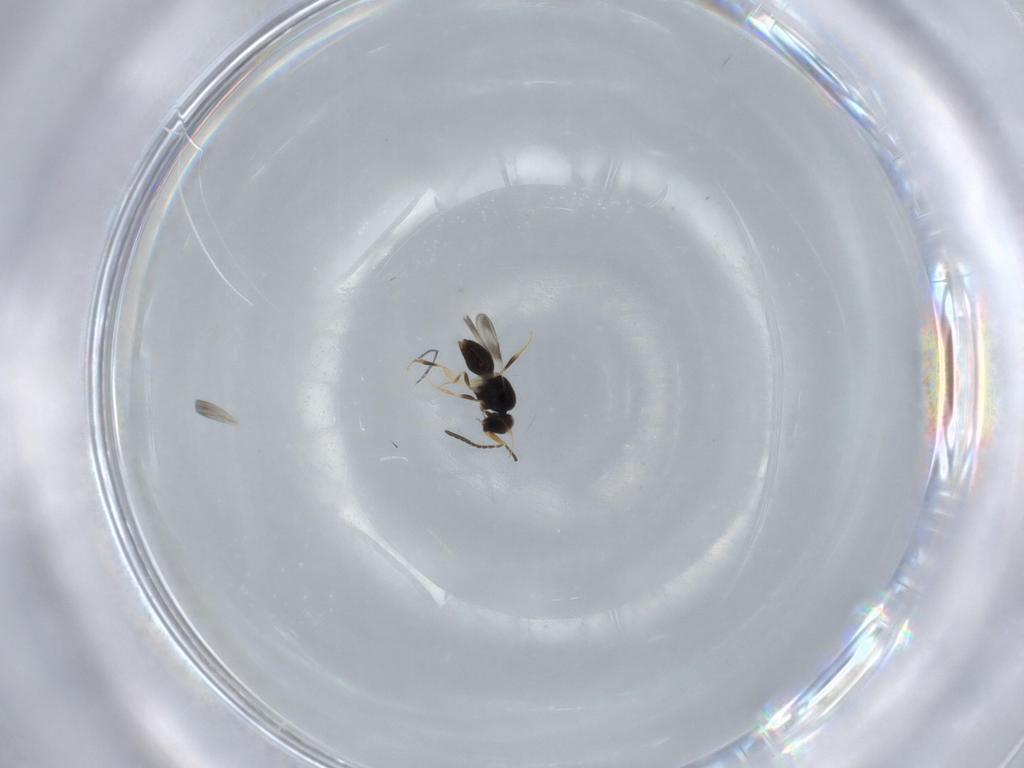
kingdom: Animalia
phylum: Arthropoda
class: Insecta
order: Hymenoptera
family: Ceraphronidae
